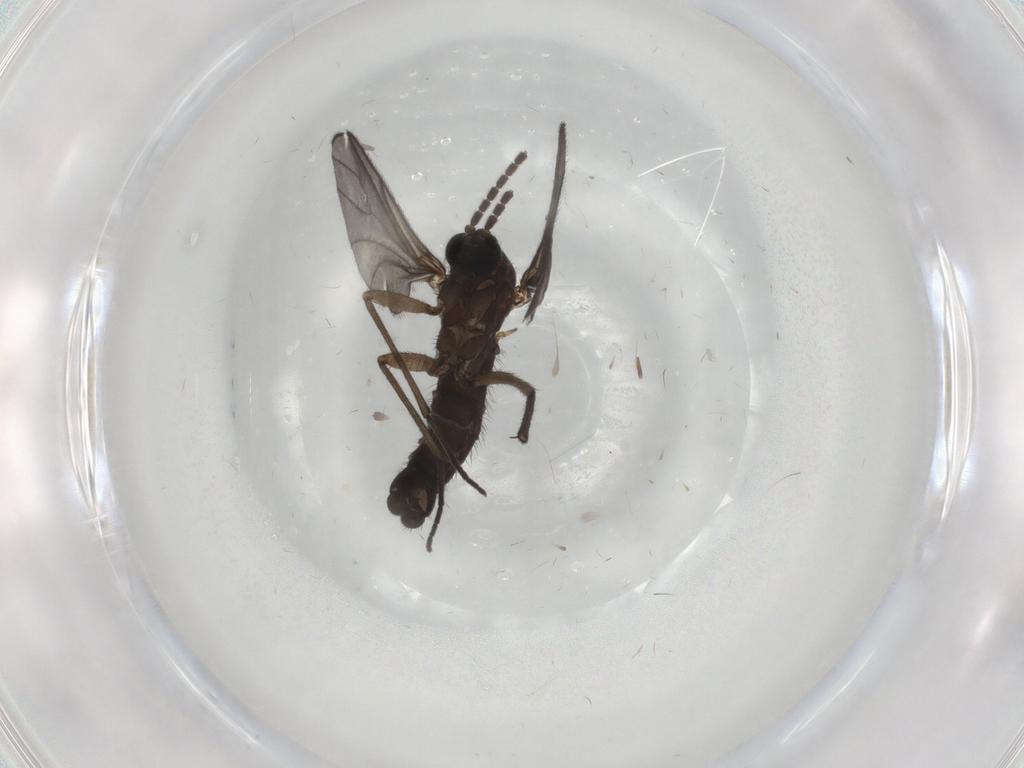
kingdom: Animalia
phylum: Arthropoda
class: Insecta
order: Diptera
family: Sciaridae
